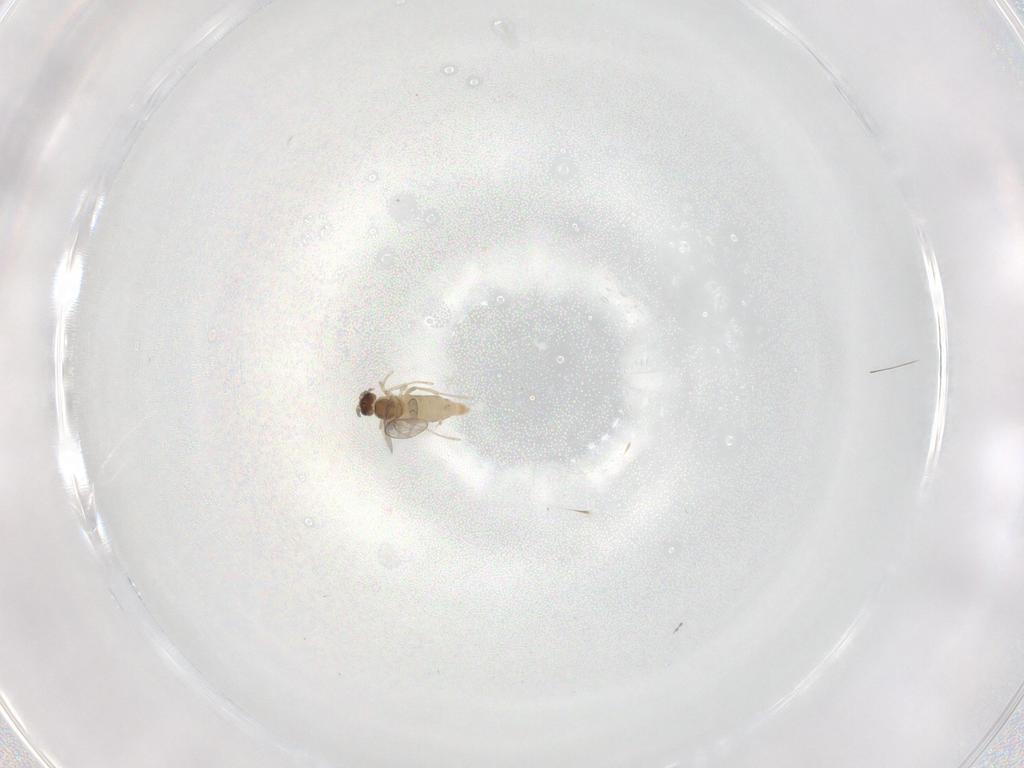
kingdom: Animalia
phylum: Arthropoda
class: Insecta
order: Diptera
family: Cecidomyiidae
